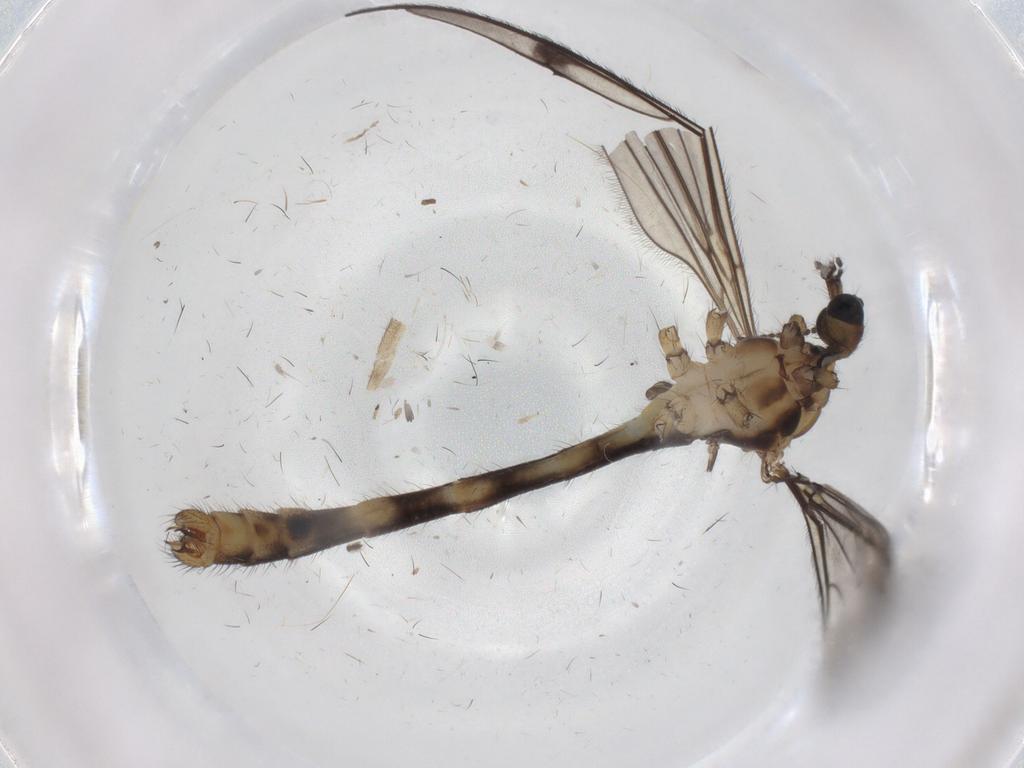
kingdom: Animalia
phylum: Arthropoda
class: Insecta
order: Diptera
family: Limoniidae
